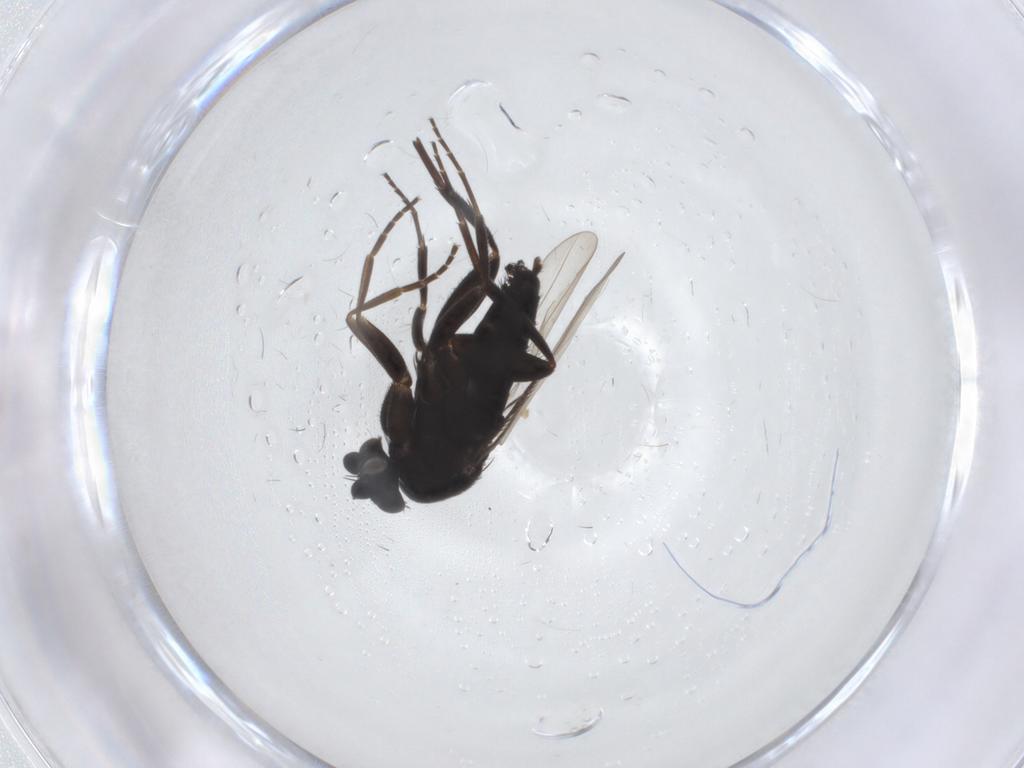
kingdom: Animalia
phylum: Arthropoda
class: Insecta
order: Diptera
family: Phoridae
